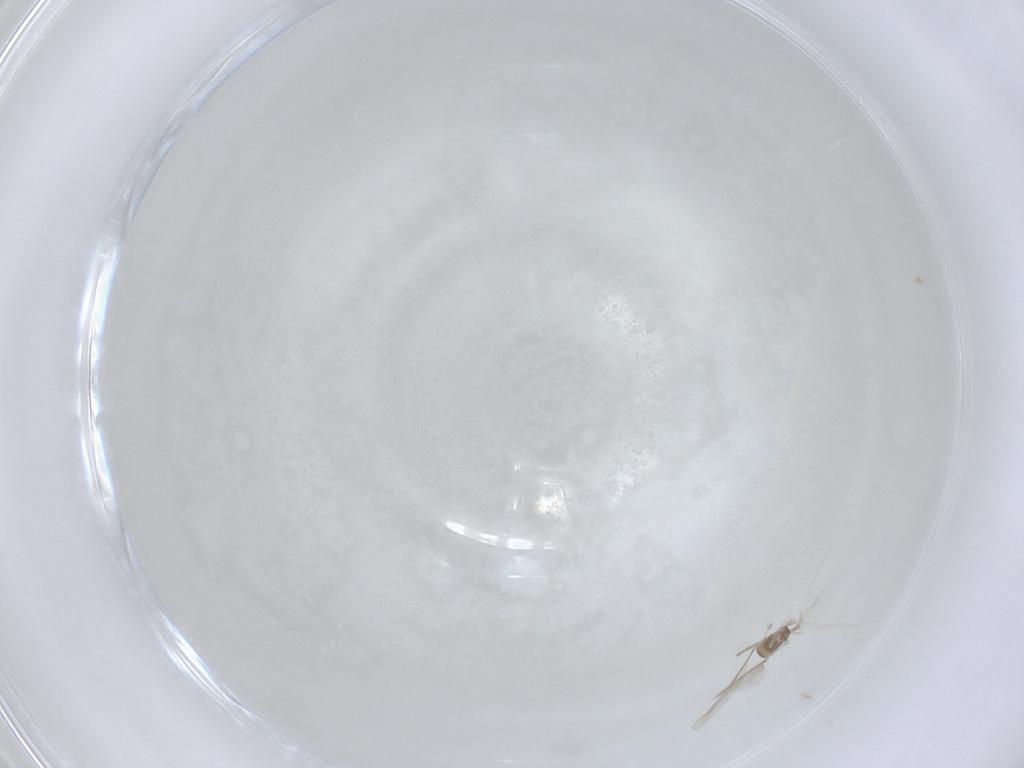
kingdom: Animalia
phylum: Arthropoda
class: Insecta
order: Diptera
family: Cecidomyiidae
